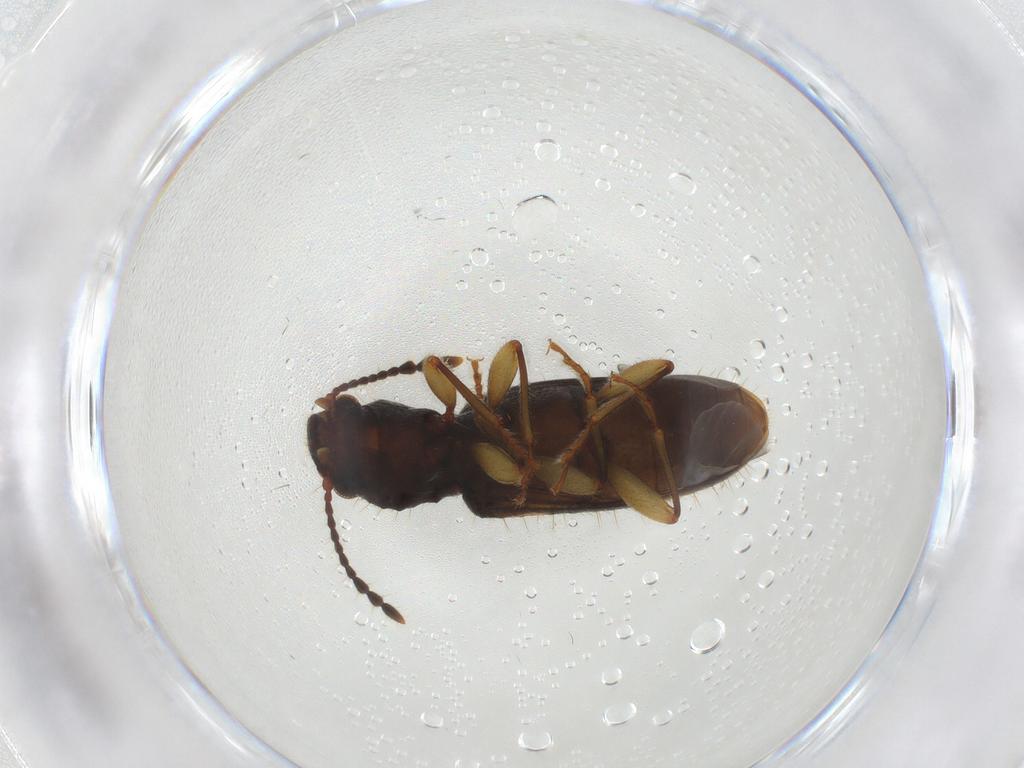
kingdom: Animalia
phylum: Arthropoda
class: Insecta
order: Coleoptera
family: Silvanidae
